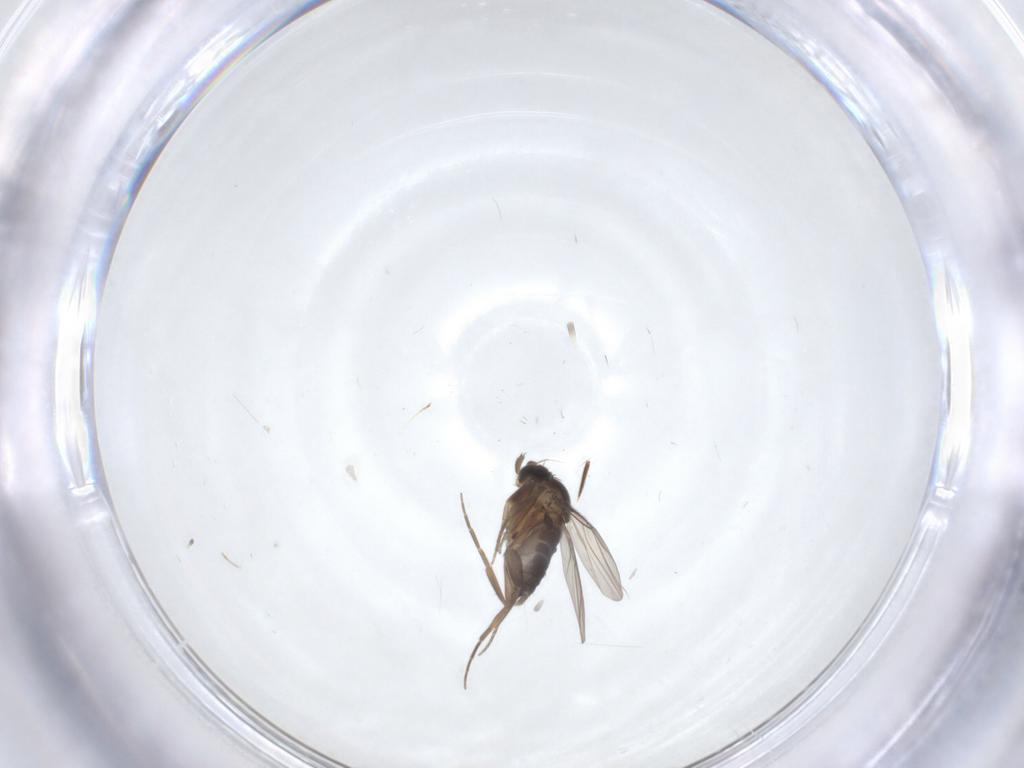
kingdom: Animalia
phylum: Arthropoda
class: Insecta
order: Diptera
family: Phoridae
